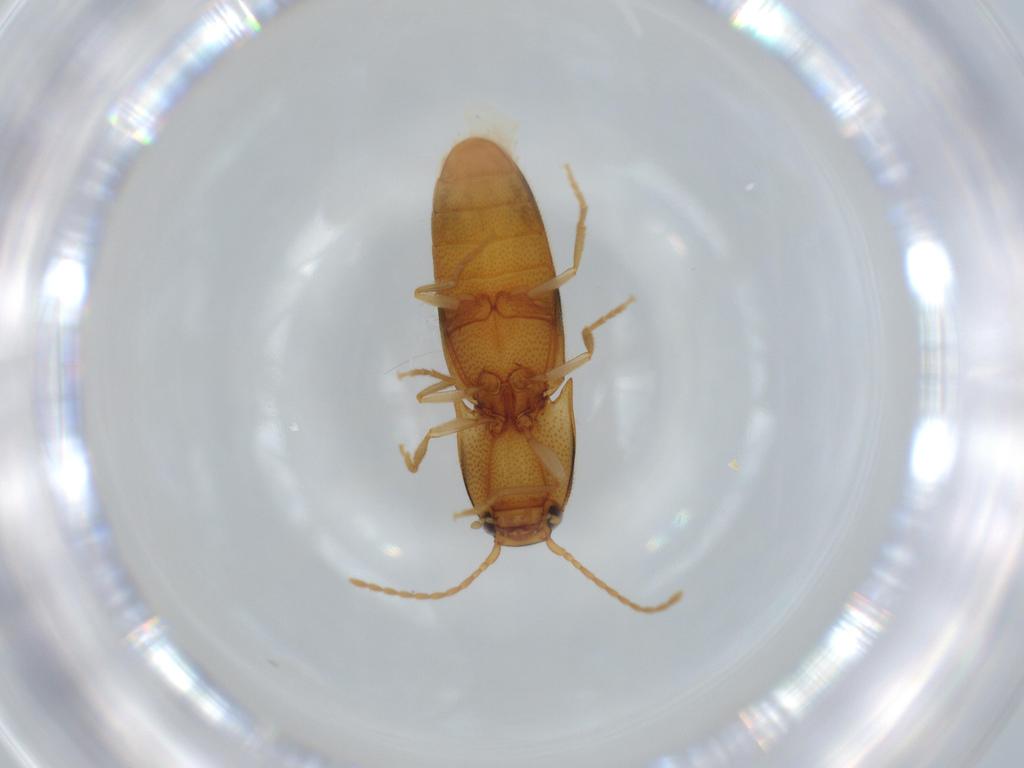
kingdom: Animalia
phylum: Arthropoda
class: Insecta
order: Coleoptera
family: Elateridae
